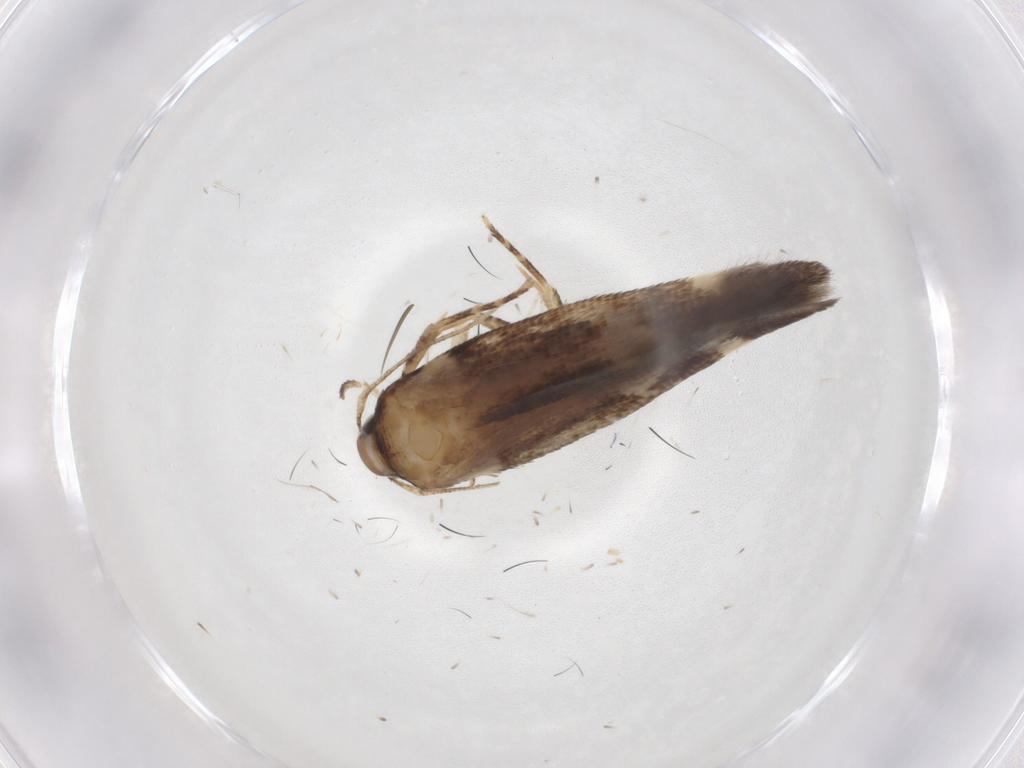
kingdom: Animalia
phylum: Arthropoda
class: Insecta
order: Lepidoptera
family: Cosmopterigidae
